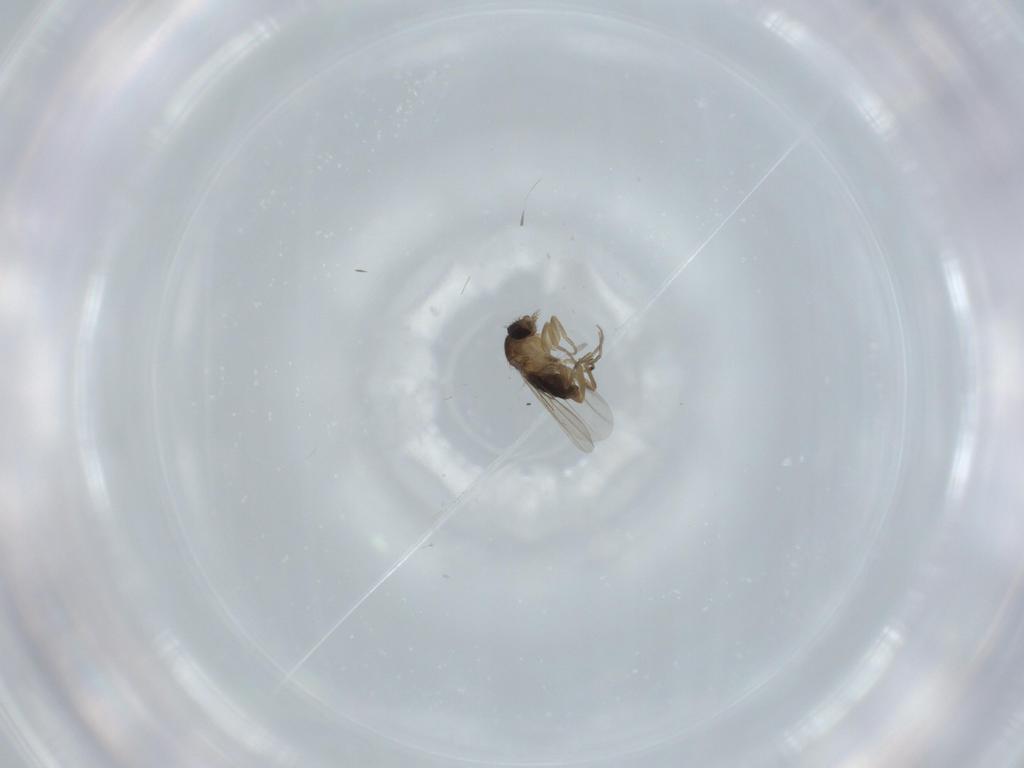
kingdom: Animalia
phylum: Arthropoda
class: Insecta
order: Diptera
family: Phoridae
